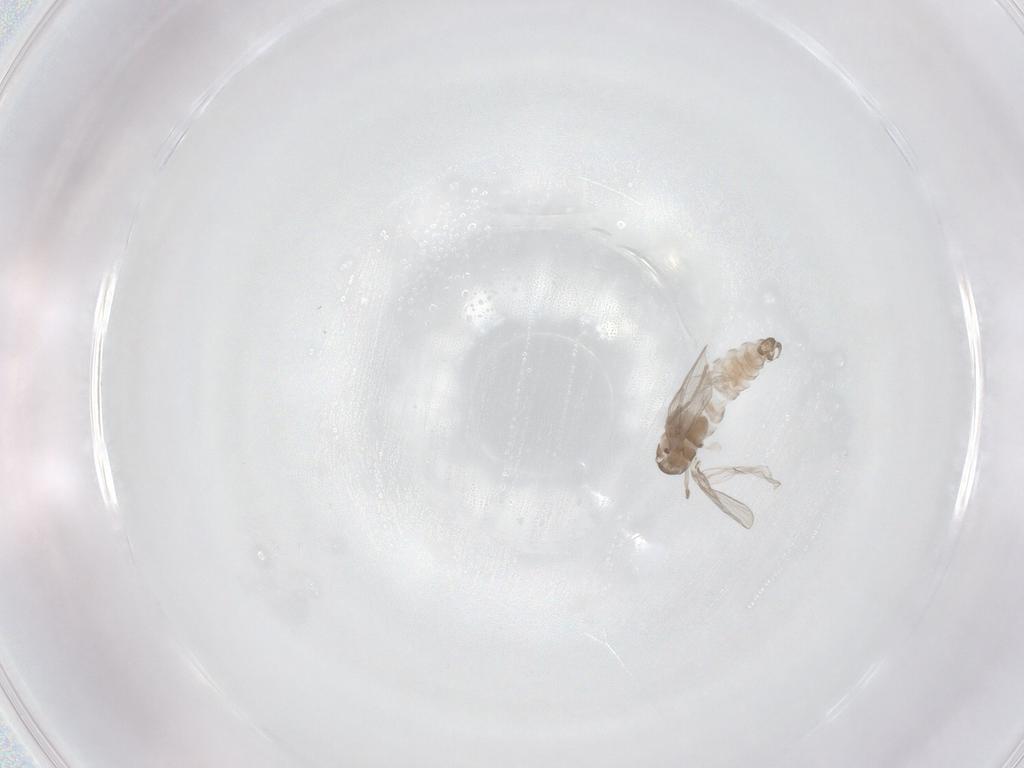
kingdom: Animalia
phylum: Arthropoda
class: Insecta
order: Diptera
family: Psychodidae
